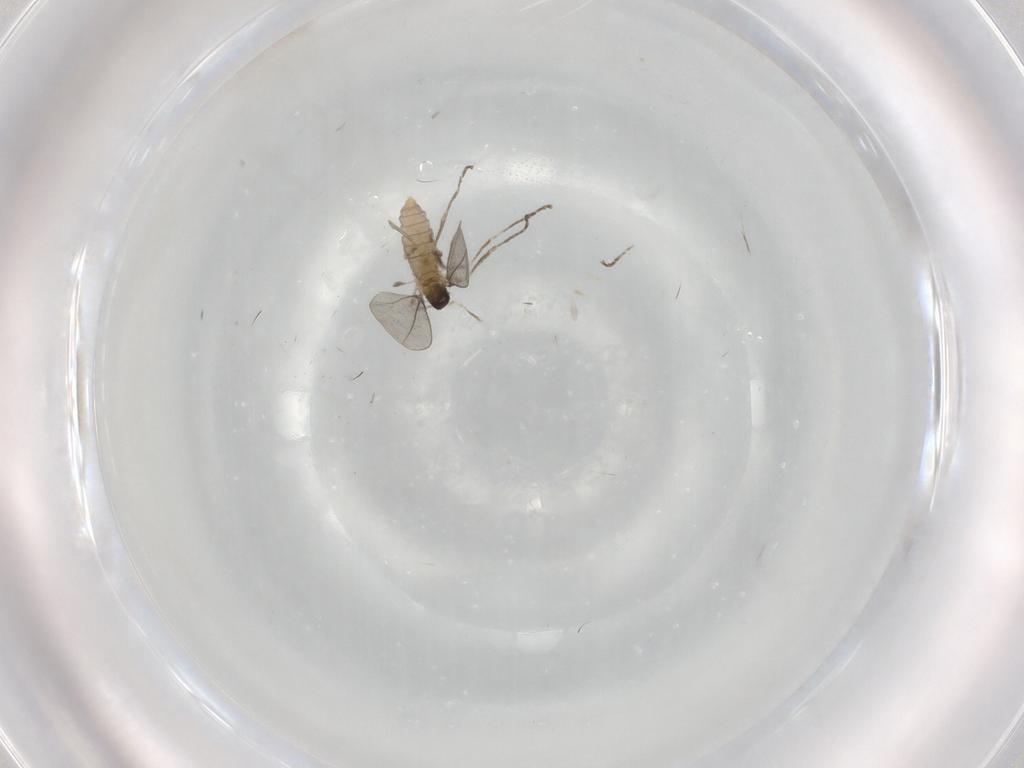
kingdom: Animalia
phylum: Arthropoda
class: Insecta
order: Diptera
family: Cecidomyiidae
